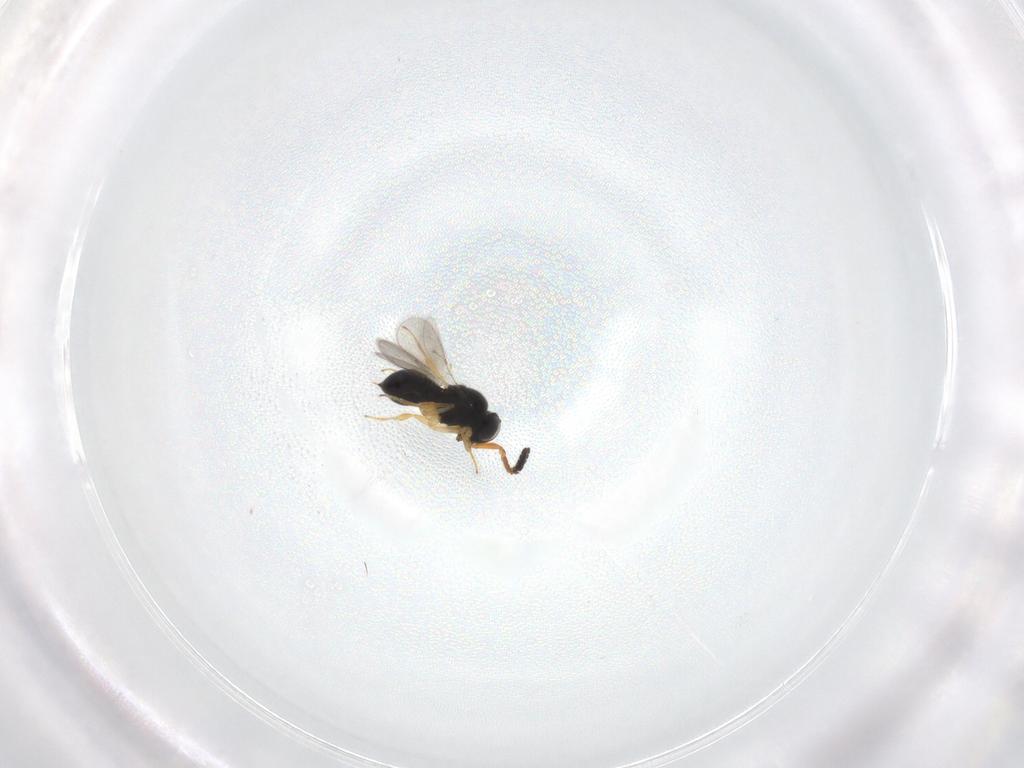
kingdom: Animalia
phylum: Arthropoda
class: Insecta
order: Hymenoptera
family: Scelionidae
